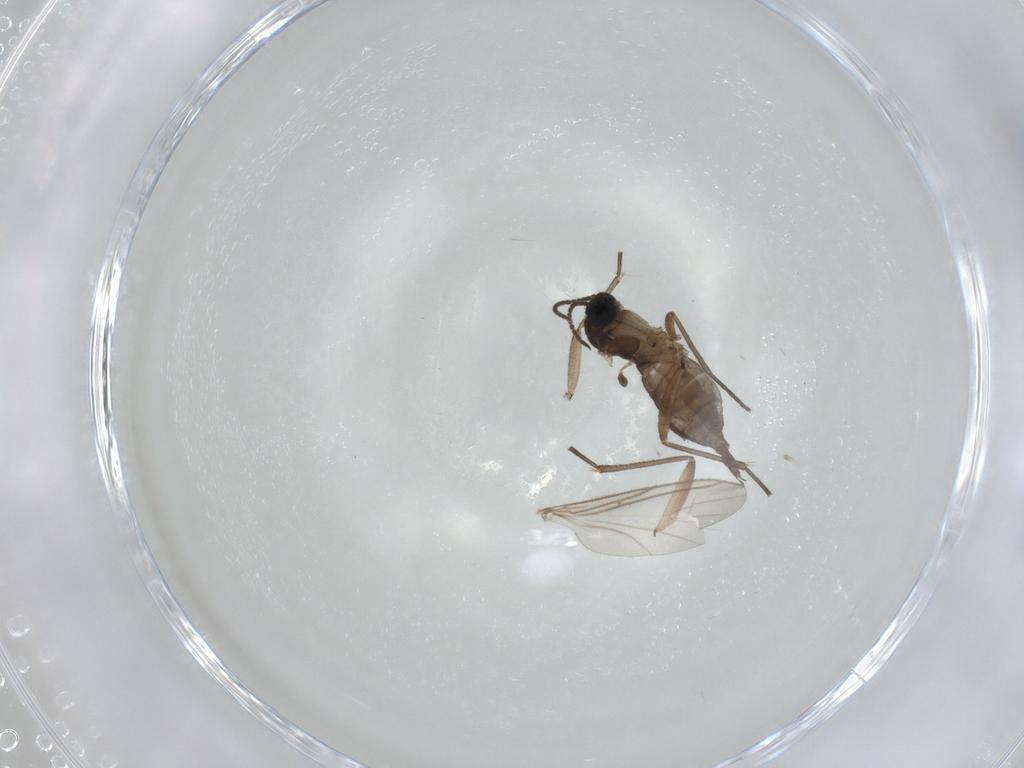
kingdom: Animalia
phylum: Arthropoda
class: Insecta
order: Diptera
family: Sciaridae
